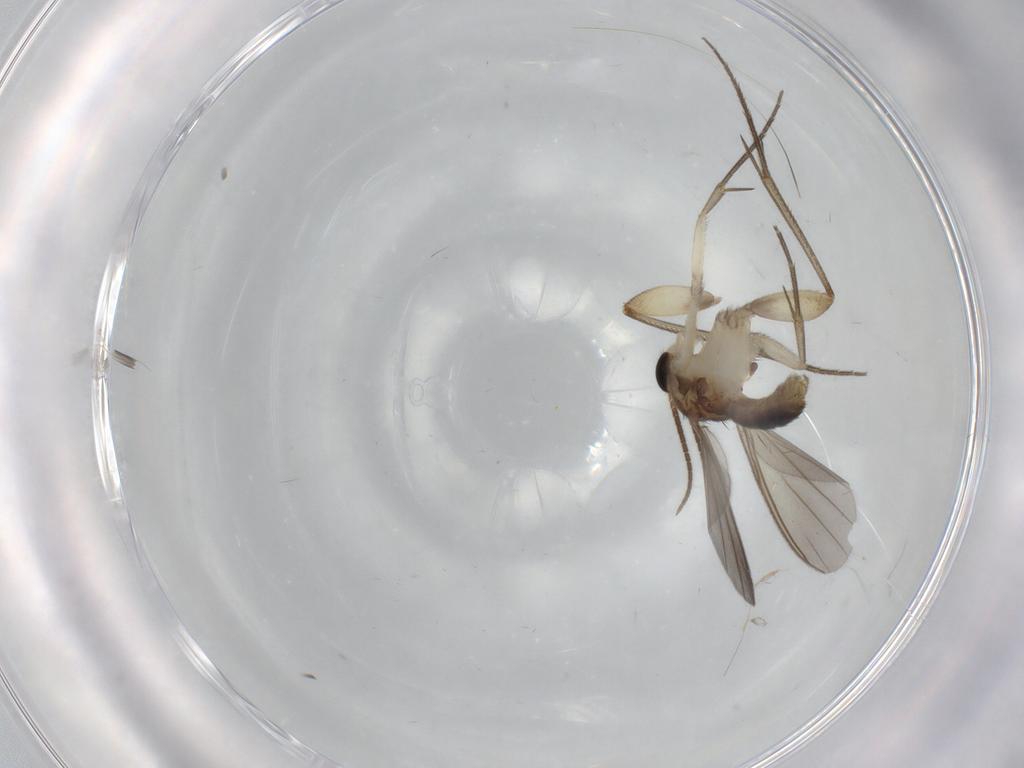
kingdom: Animalia
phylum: Arthropoda
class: Insecta
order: Diptera
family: Mycetophilidae
